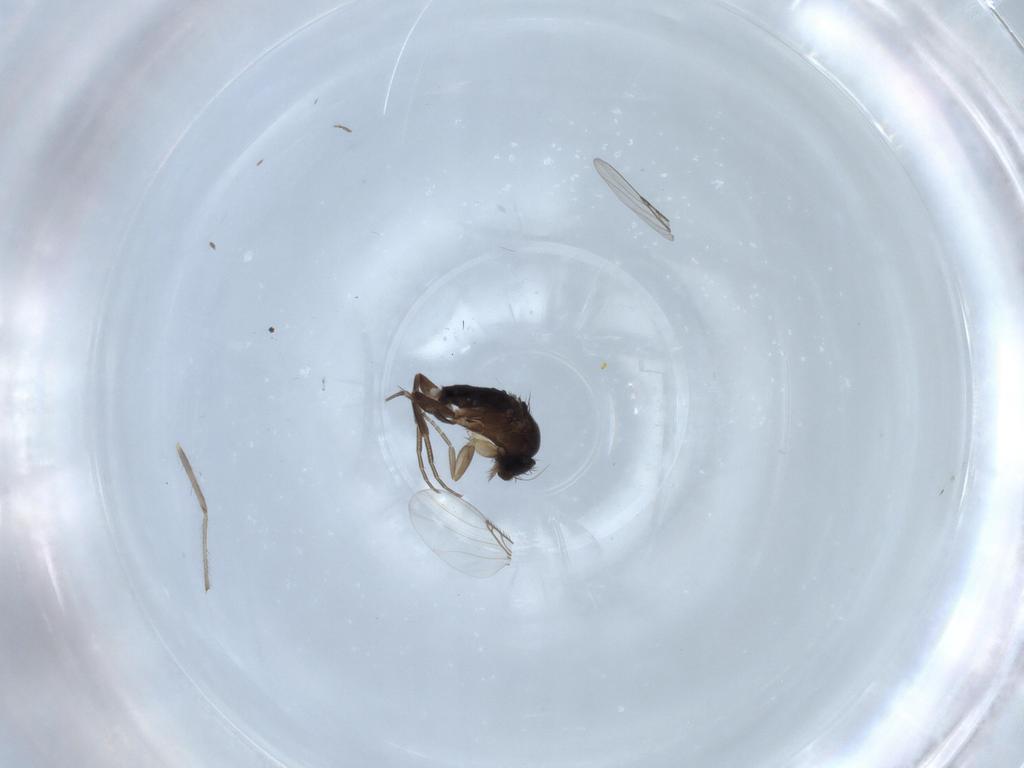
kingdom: Animalia
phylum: Arthropoda
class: Insecta
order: Diptera
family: Phoridae
